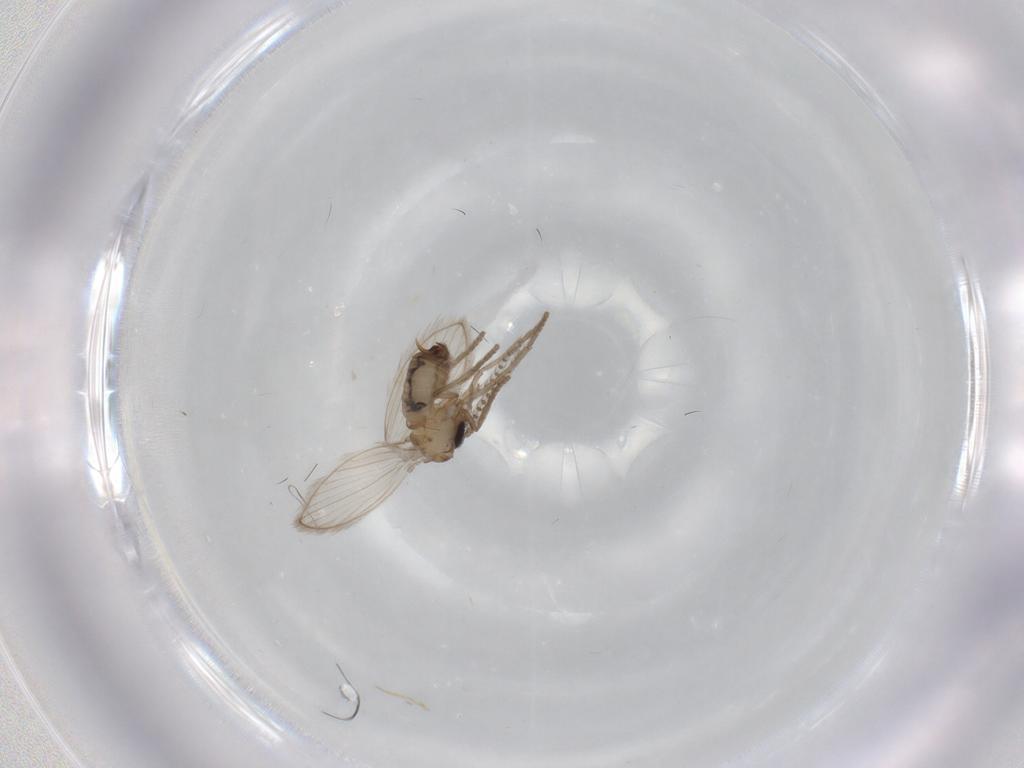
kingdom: Animalia
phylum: Arthropoda
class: Insecta
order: Diptera
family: Psychodidae
